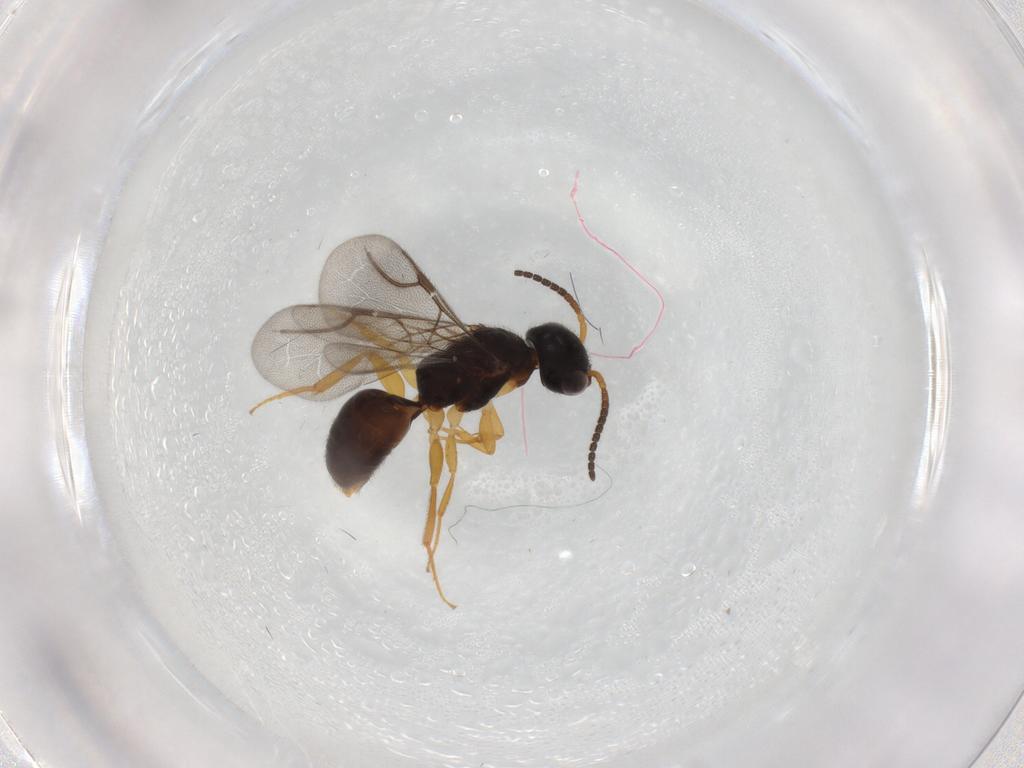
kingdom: Animalia
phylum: Arthropoda
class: Insecta
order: Hymenoptera
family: Bethylidae
